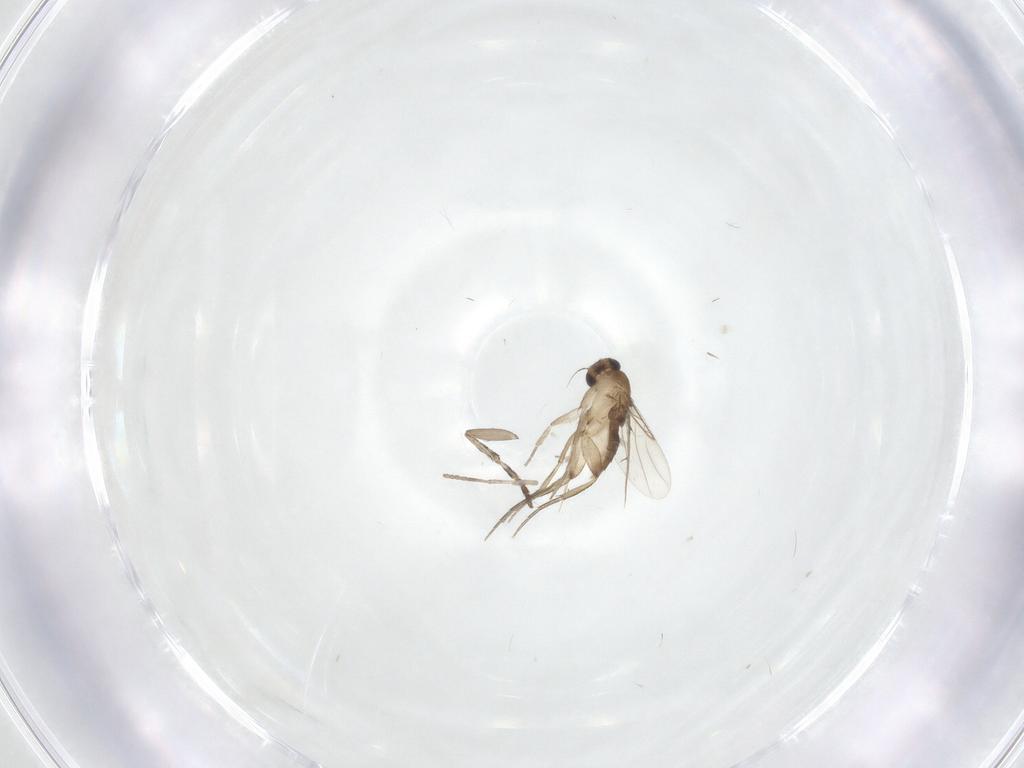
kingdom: Animalia
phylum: Arthropoda
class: Insecta
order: Diptera
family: Phoridae
